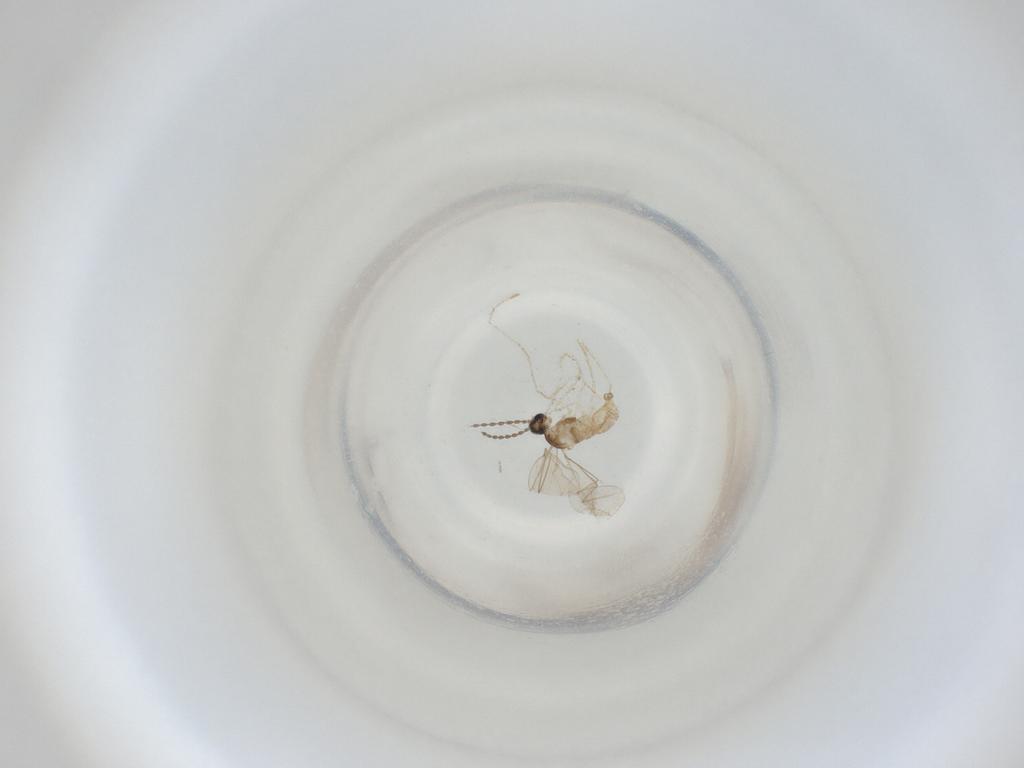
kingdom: Animalia
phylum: Arthropoda
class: Insecta
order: Diptera
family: Cecidomyiidae
